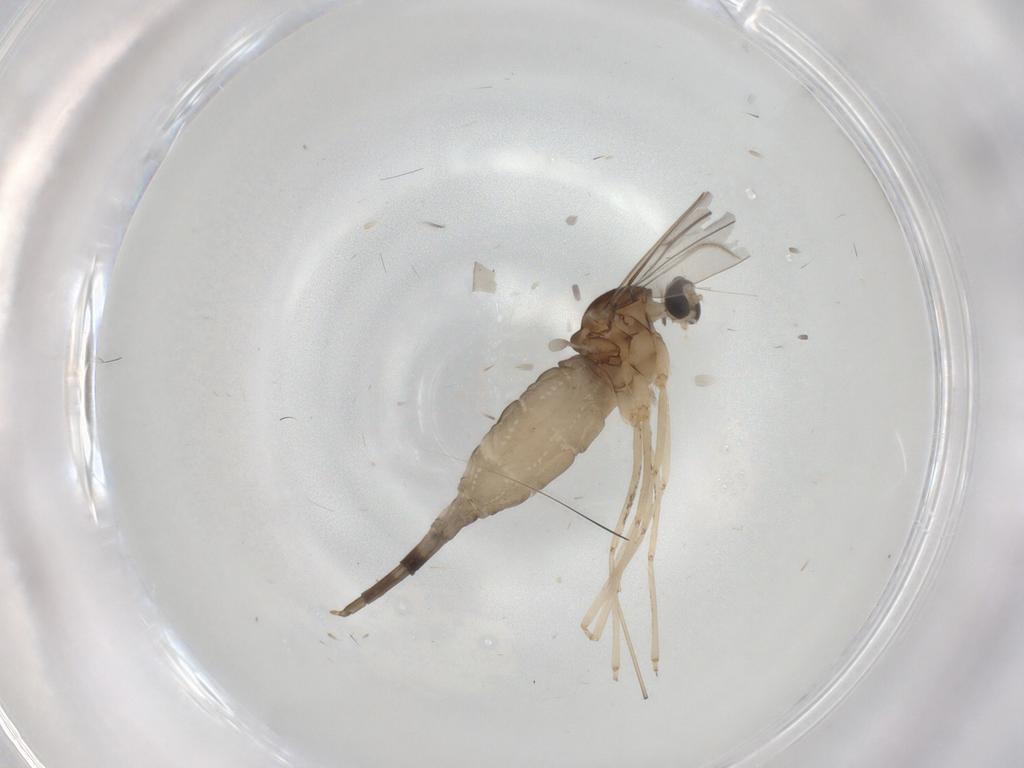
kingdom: Animalia
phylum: Arthropoda
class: Insecta
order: Diptera
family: Cecidomyiidae
